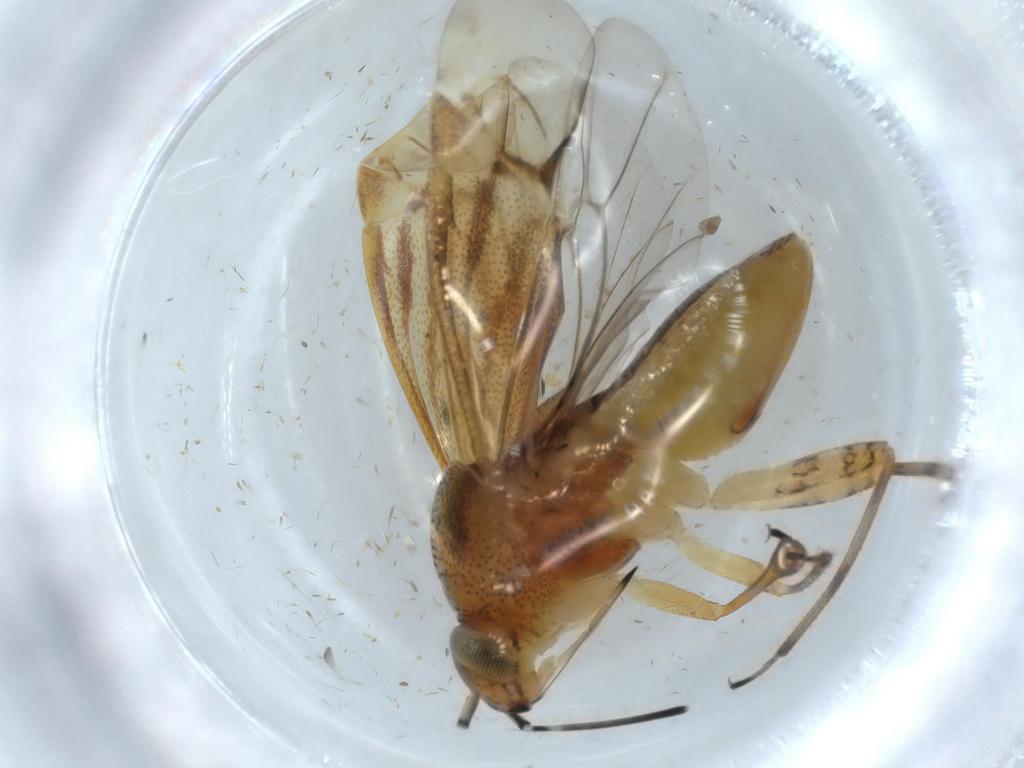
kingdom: Animalia
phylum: Arthropoda
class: Insecta
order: Hemiptera
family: Miridae
